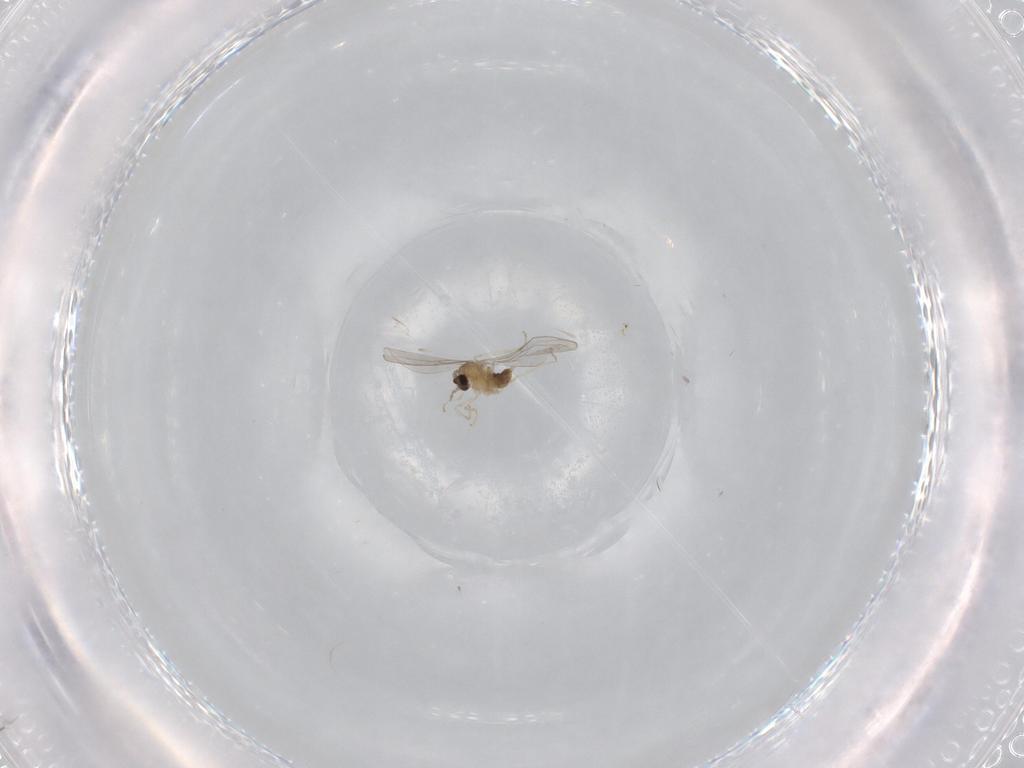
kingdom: Animalia
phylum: Arthropoda
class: Insecta
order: Diptera
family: Cecidomyiidae
